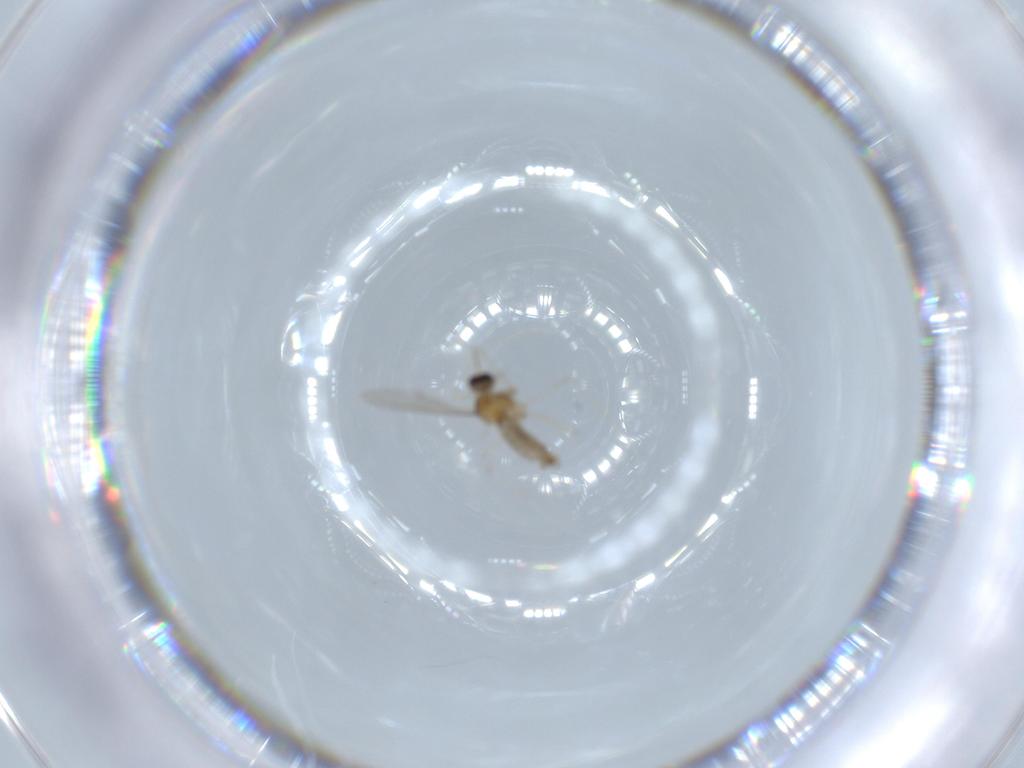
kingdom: Animalia
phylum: Arthropoda
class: Insecta
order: Diptera
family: Cecidomyiidae
